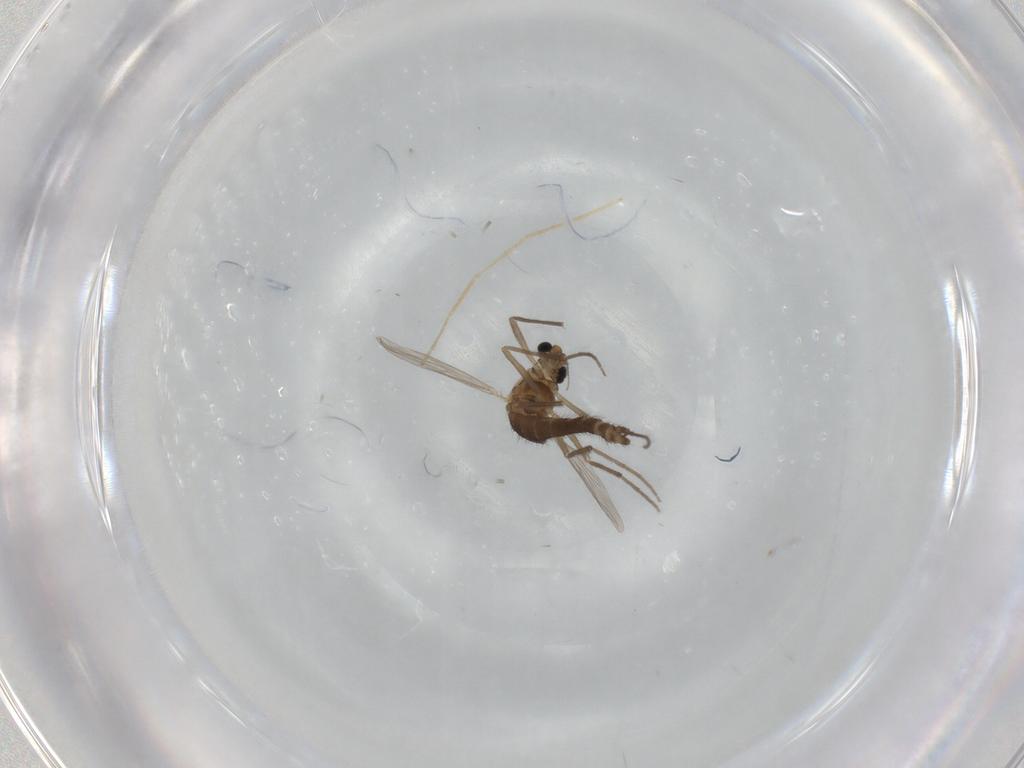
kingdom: Animalia
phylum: Arthropoda
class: Insecta
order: Diptera
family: Chironomidae
